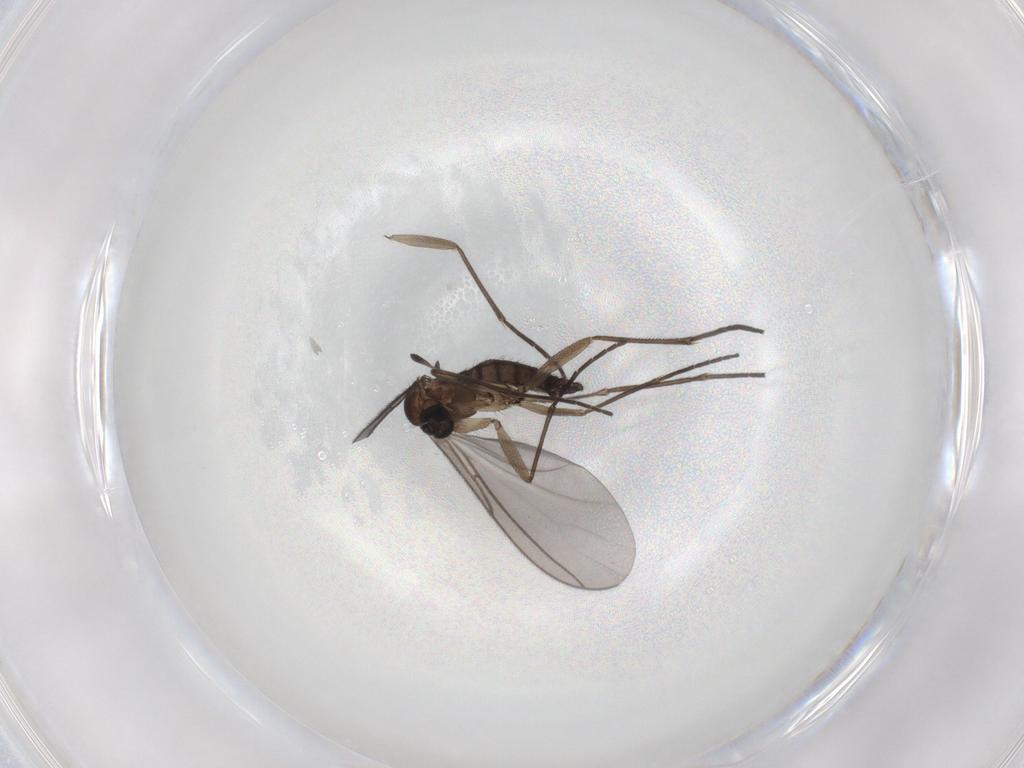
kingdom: Animalia
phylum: Arthropoda
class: Insecta
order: Diptera
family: Sciaridae
